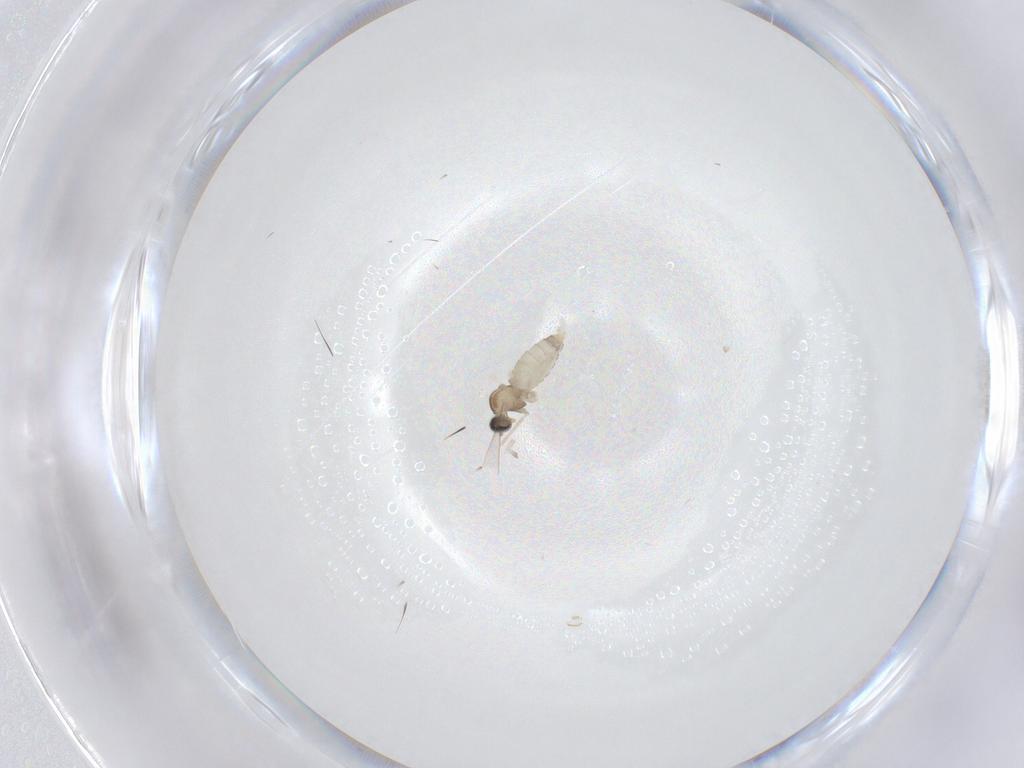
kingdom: Animalia
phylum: Arthropoda
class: Insecta
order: Diptera
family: Cecidomyiidae
